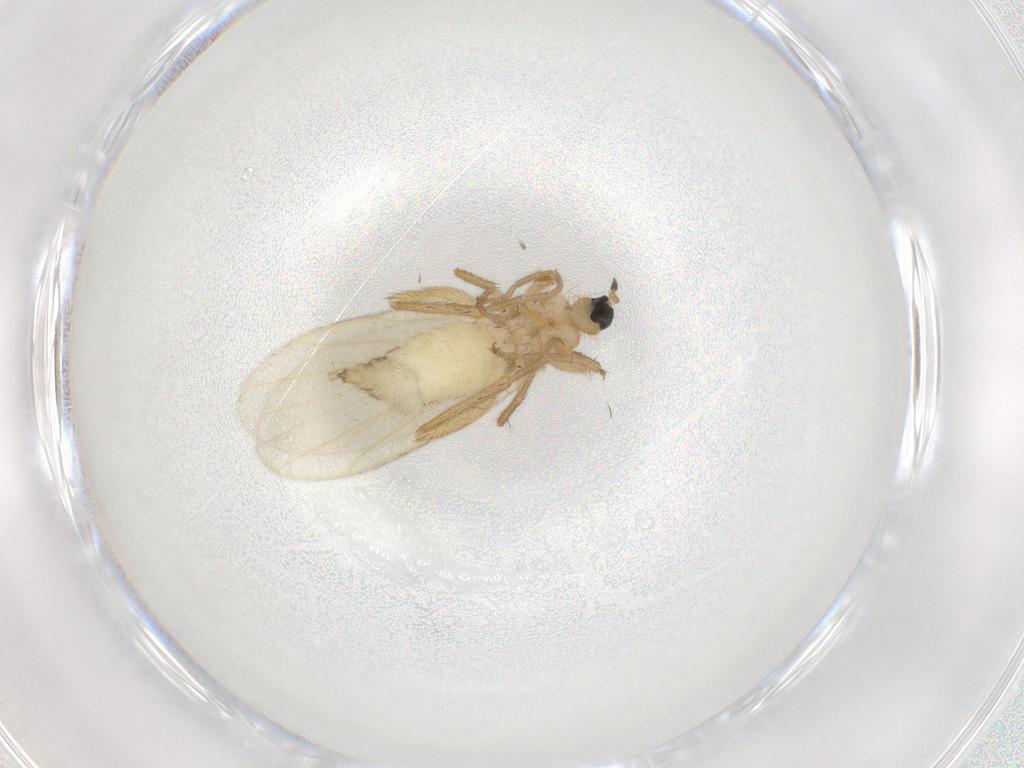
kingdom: Animalia
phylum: Arthropoda
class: Insecta
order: Diptera
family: Hybotidae
